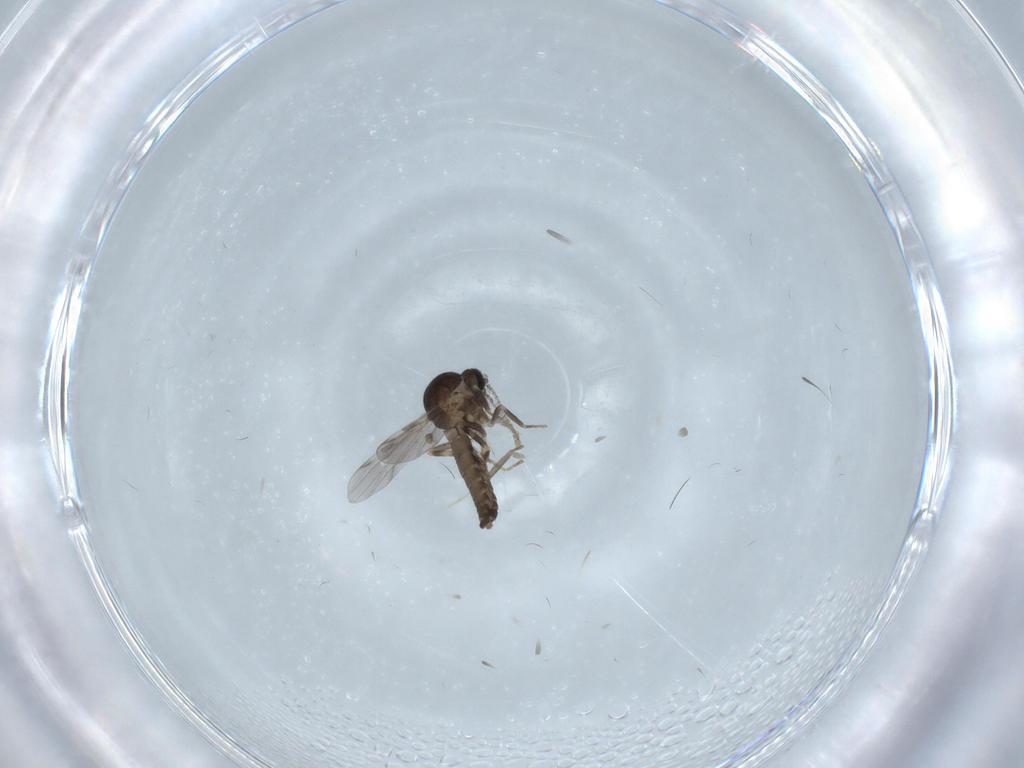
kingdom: Animalia
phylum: Arthropoda
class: Insecta
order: Diptera
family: Ceratopogonidae
